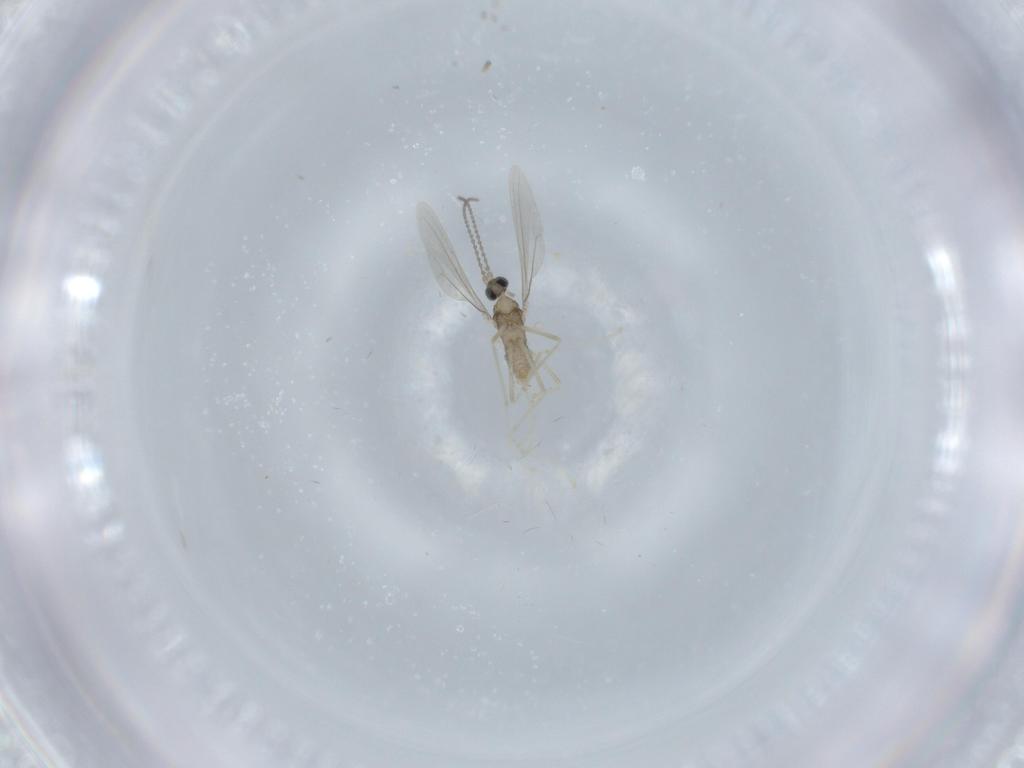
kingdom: Animalia
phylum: Arthropoda
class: Insecta
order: Diptera
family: Cecidomyiidae
